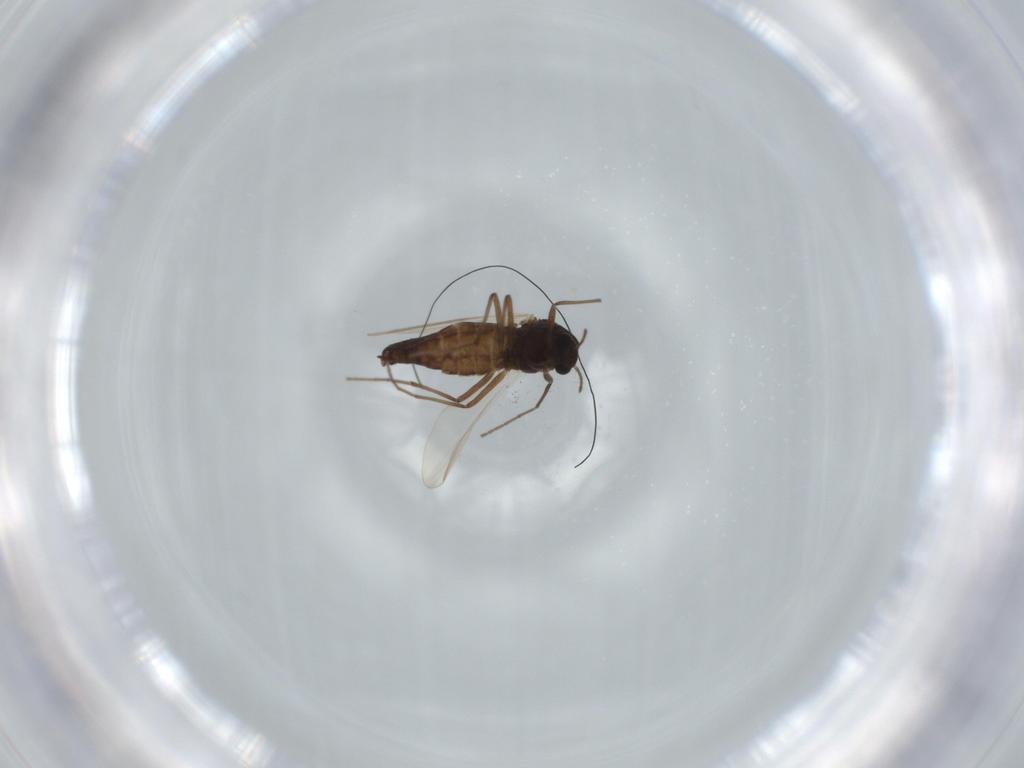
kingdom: Animalia
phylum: Arthropoda
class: Insecta
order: Diptera
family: Chironomidae
